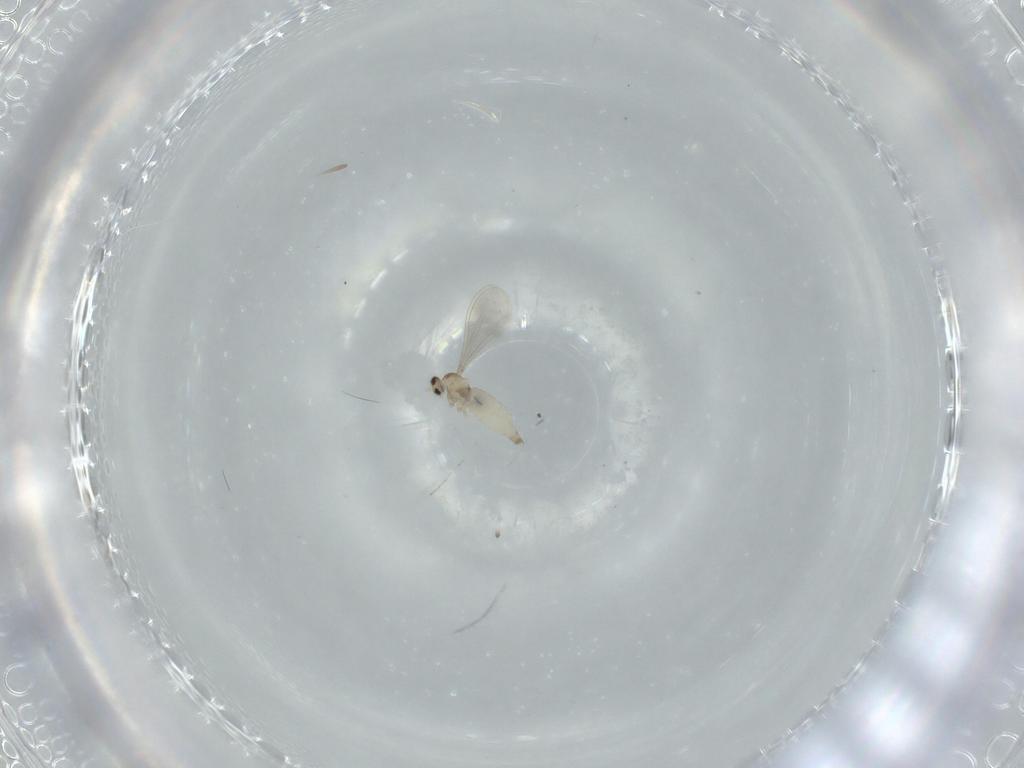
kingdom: Animalia
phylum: Arthropoda
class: Insecta
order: Diptera
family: Cecidomyiidae
